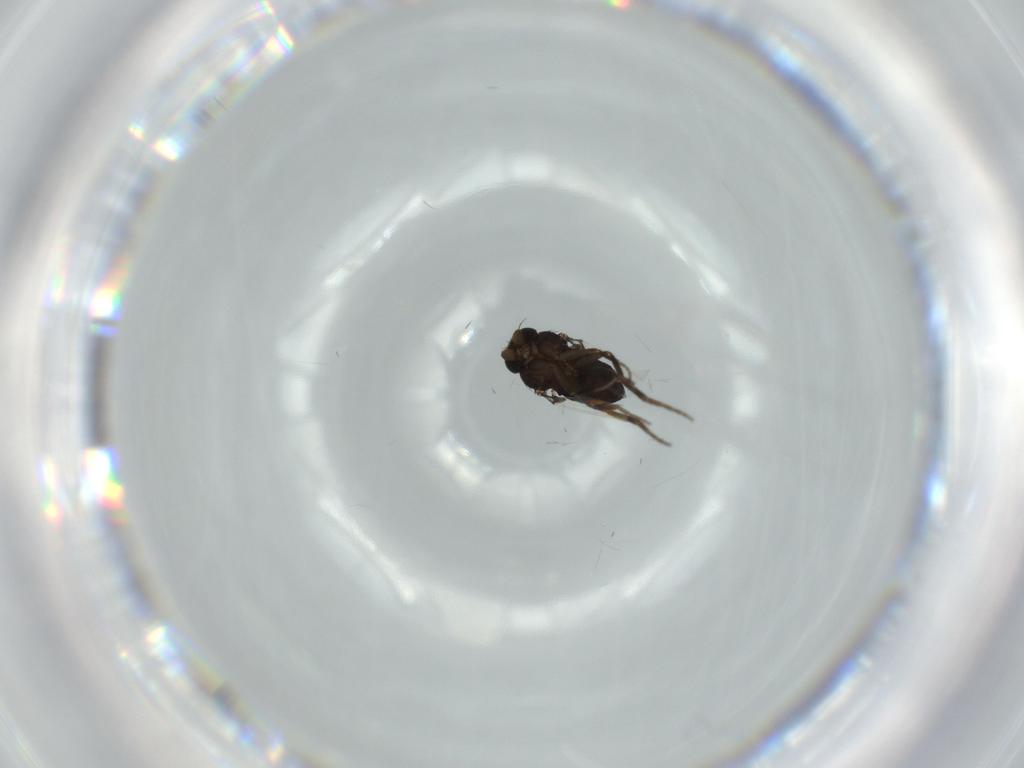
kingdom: Animalia
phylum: Arthropoda
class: Insecta
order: Diptera
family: Phoridae
